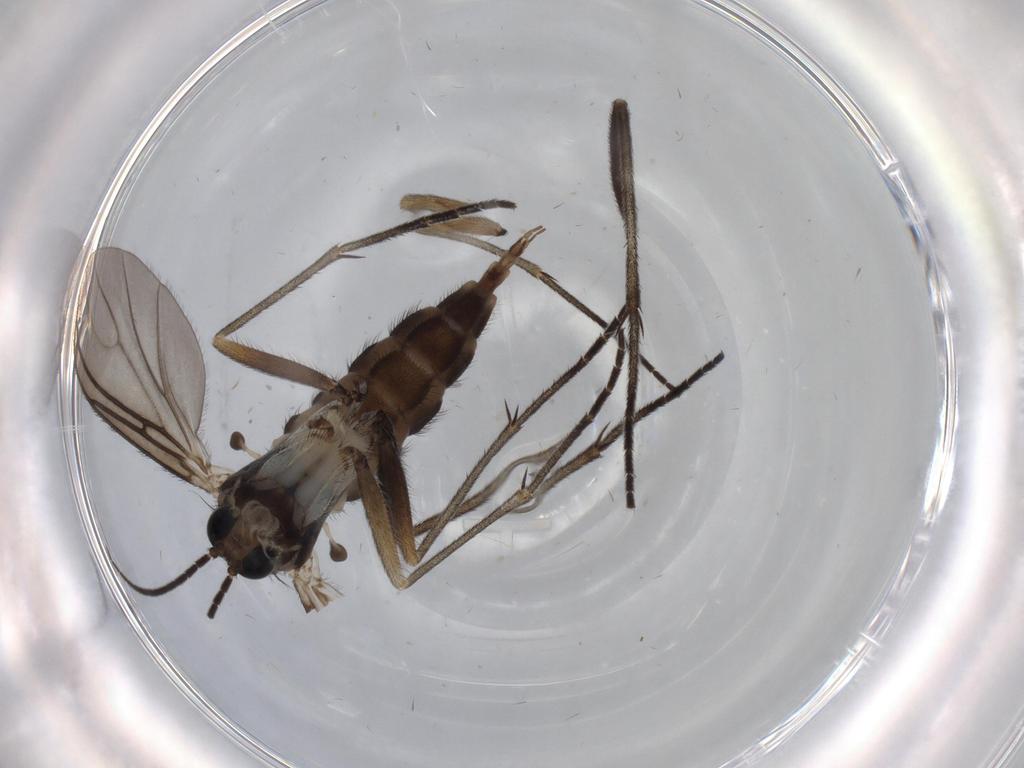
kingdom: Animalia
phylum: Arthropoda
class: Insecta
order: Diptera
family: Sciaridae
